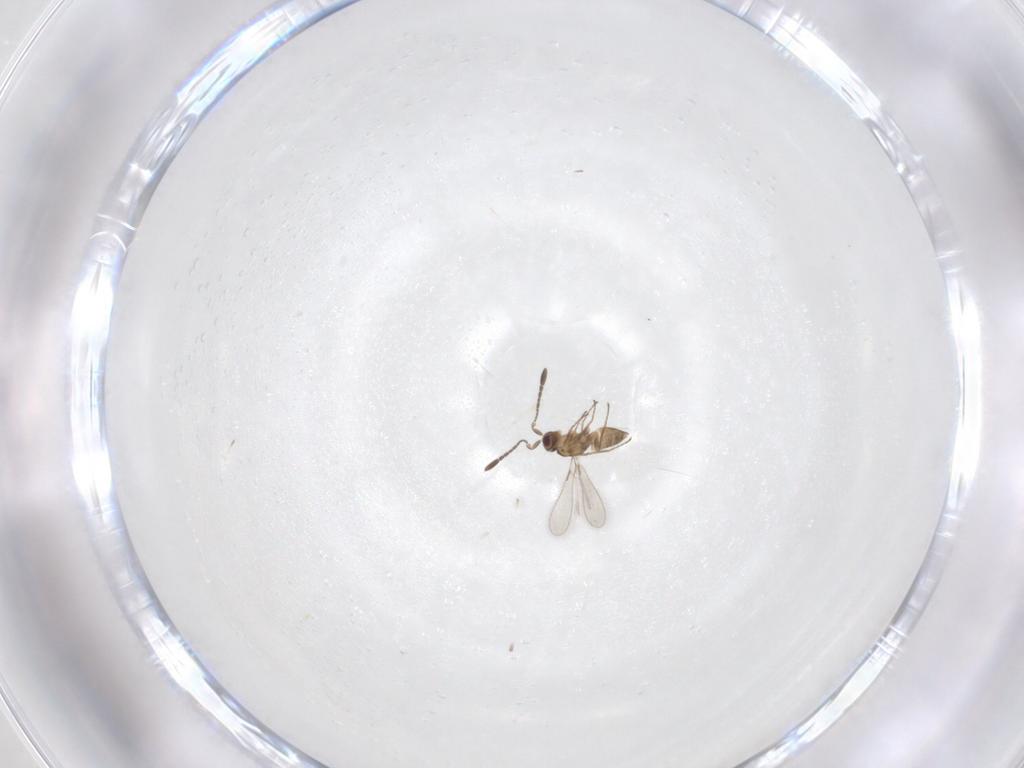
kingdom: Animalia
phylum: Arthropoda
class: Insecta
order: Hymenoptera
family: Mymaridae
